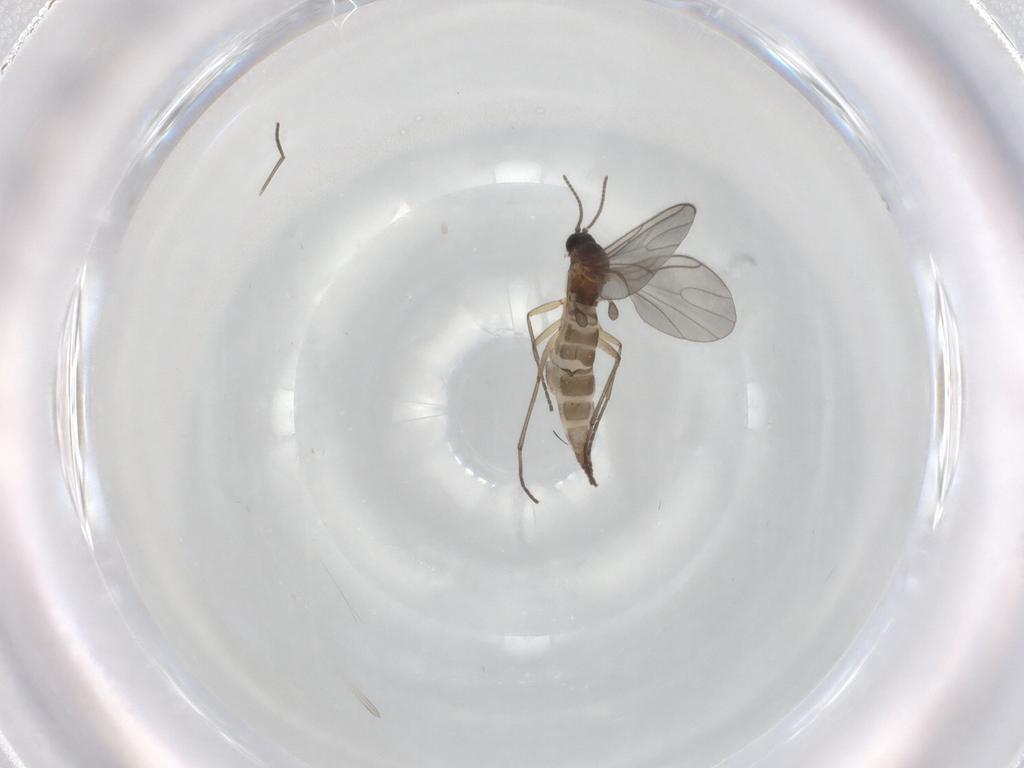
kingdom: Animalia
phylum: Arthropoda
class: Insecta
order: Diptera
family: Sciaridae
